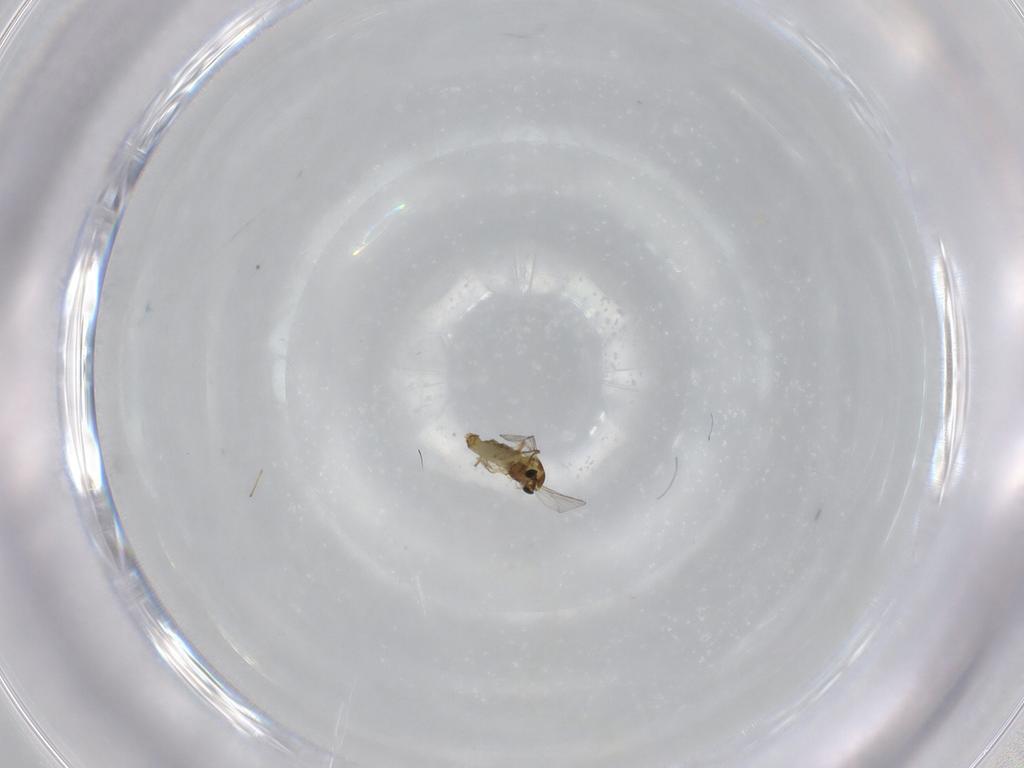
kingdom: Animalia
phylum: Arthropoda
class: Insecta
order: Diptera
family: Chironomidae
